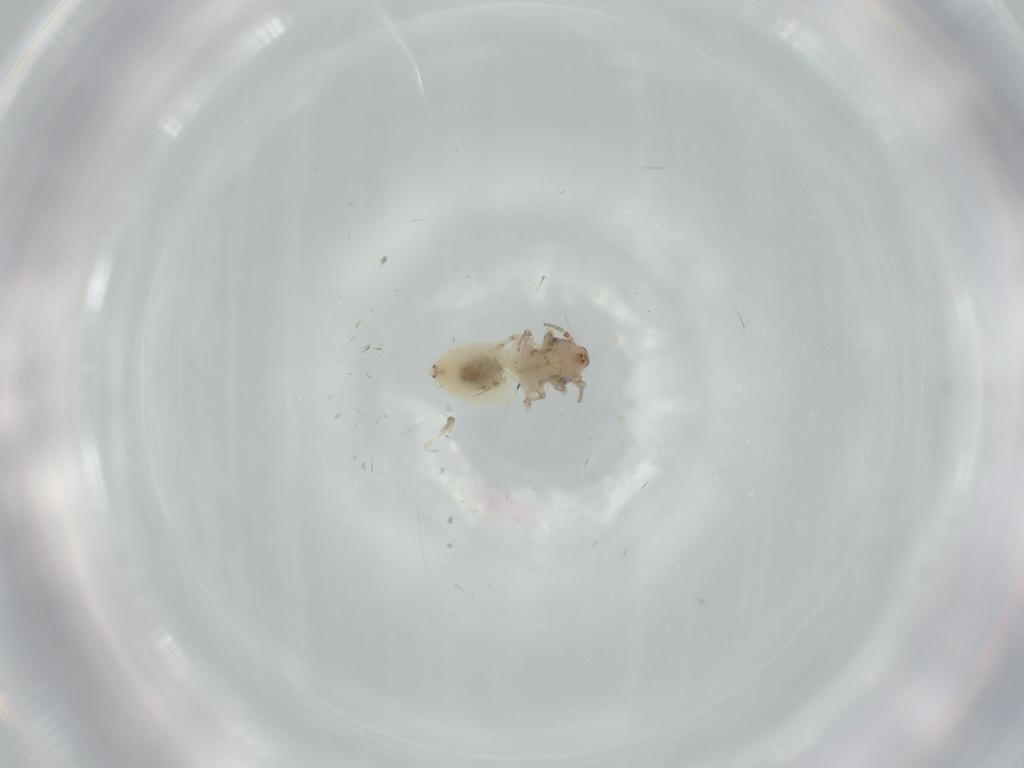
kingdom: Animalia
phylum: Arthropoda
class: Insecta
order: Psocodea
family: Lepidopsocidae
